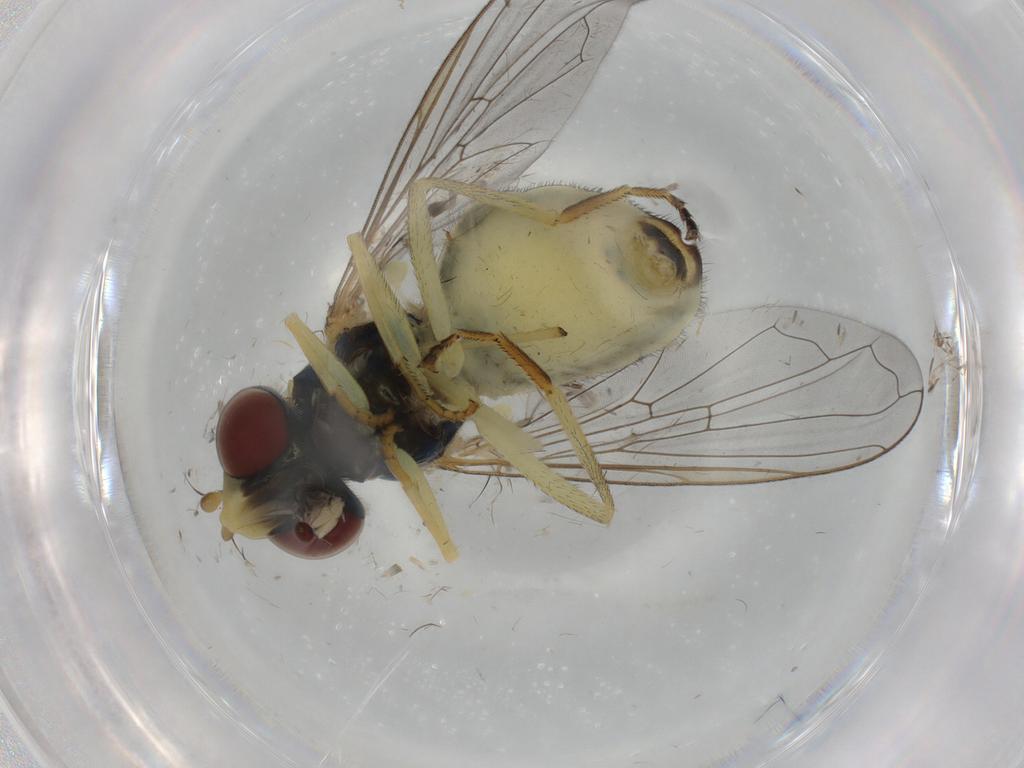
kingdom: Animalia
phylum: Arthropoda
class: Insecta
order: Diptera
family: Syrphidae
